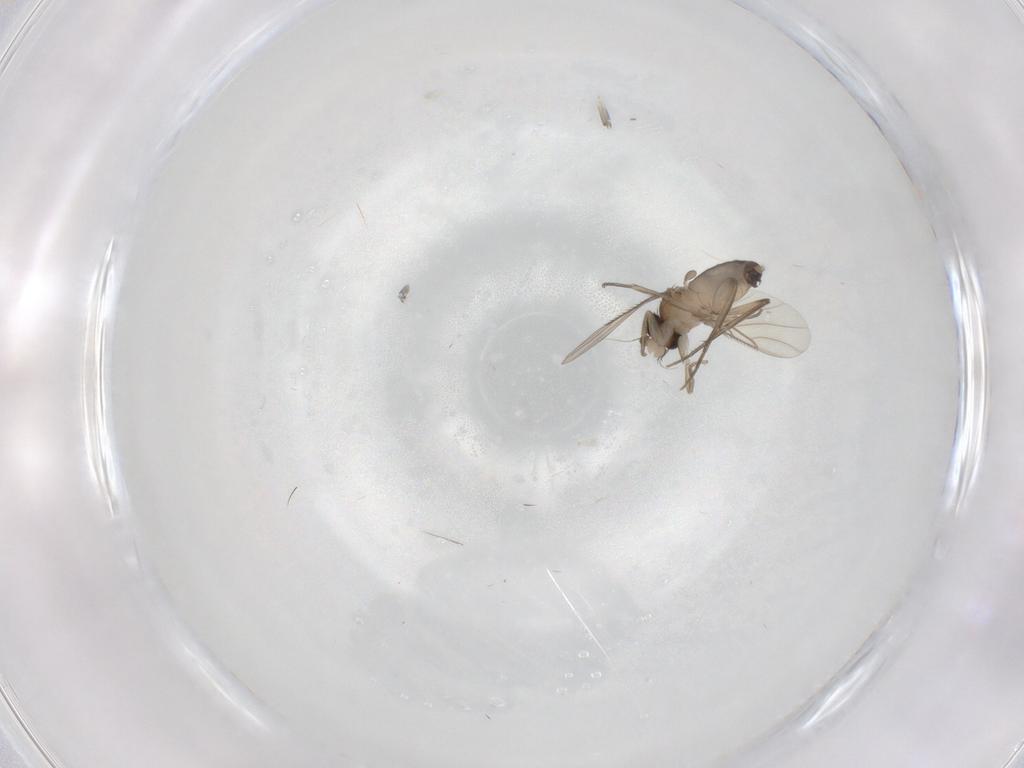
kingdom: Animalia
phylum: Arthropoda
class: Insecta
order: Diptera
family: Phoridae
